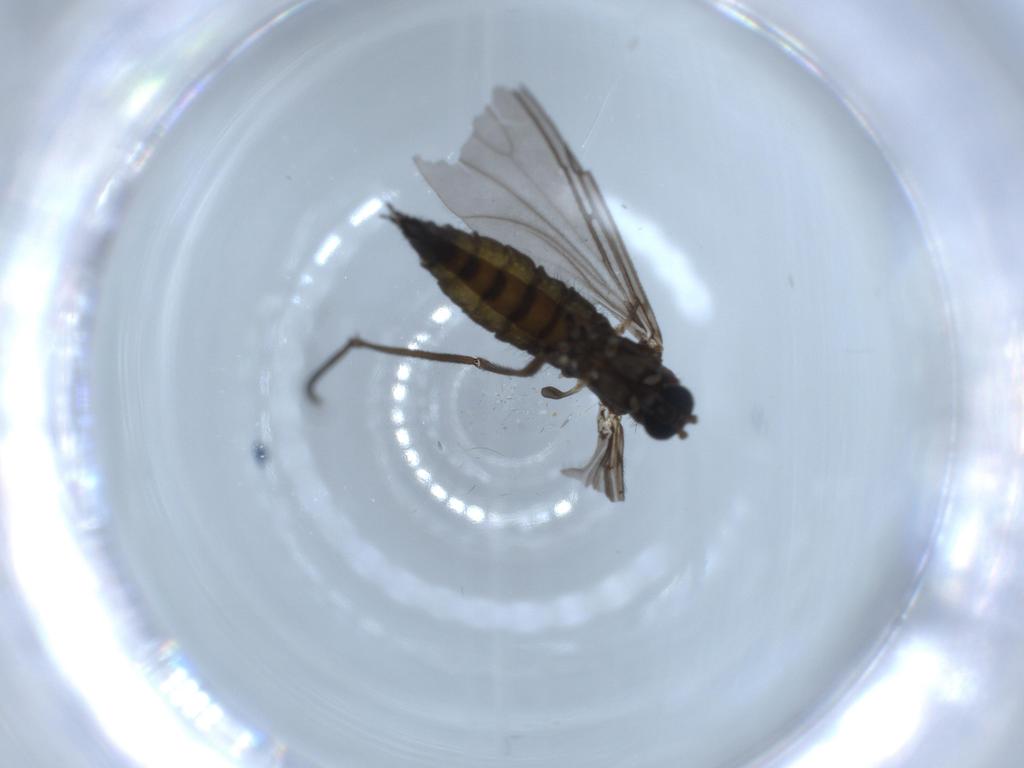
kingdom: Animalia
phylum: Arthropoda
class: Insecta
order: Diptera
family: Sciaridae
